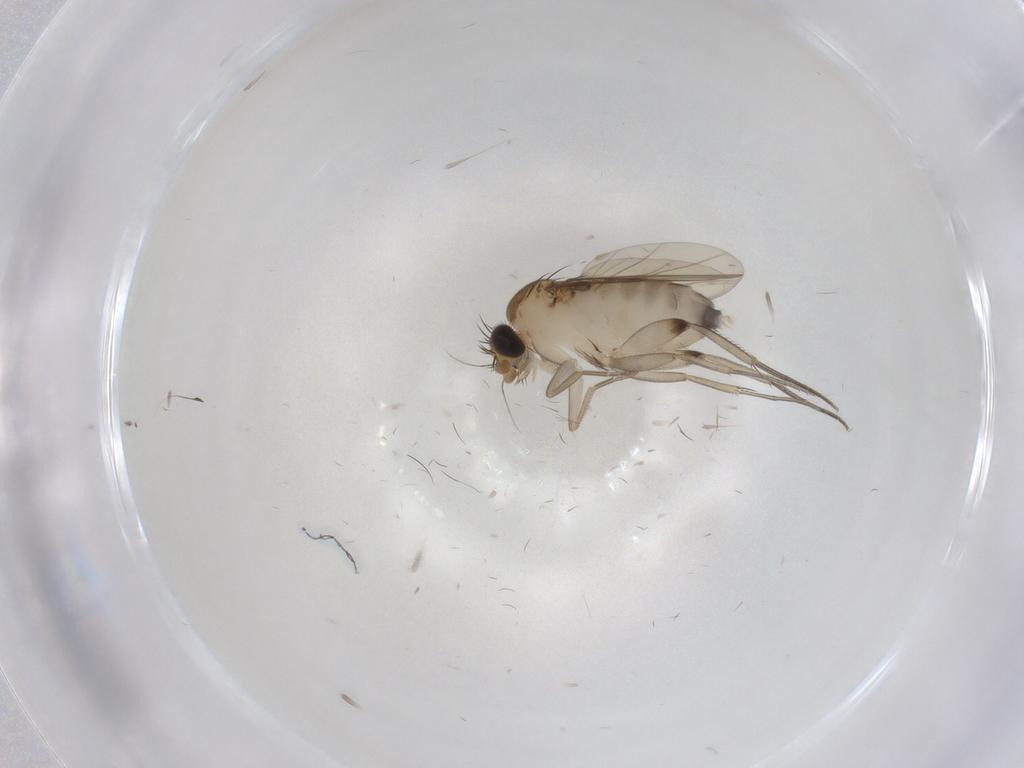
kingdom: Animalia
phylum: Arthropoda
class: Insecta
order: Diptera
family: Phoridae
